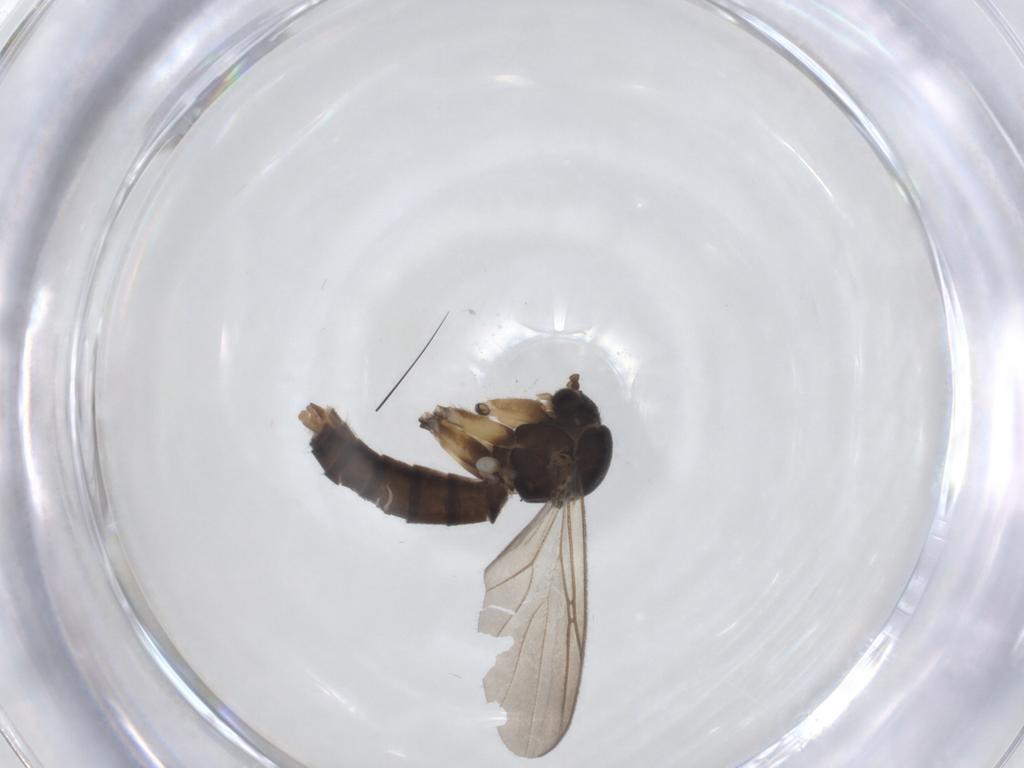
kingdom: Animalia
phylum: Arthropoda
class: Insecta
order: Diptera
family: Mycetophilidae
